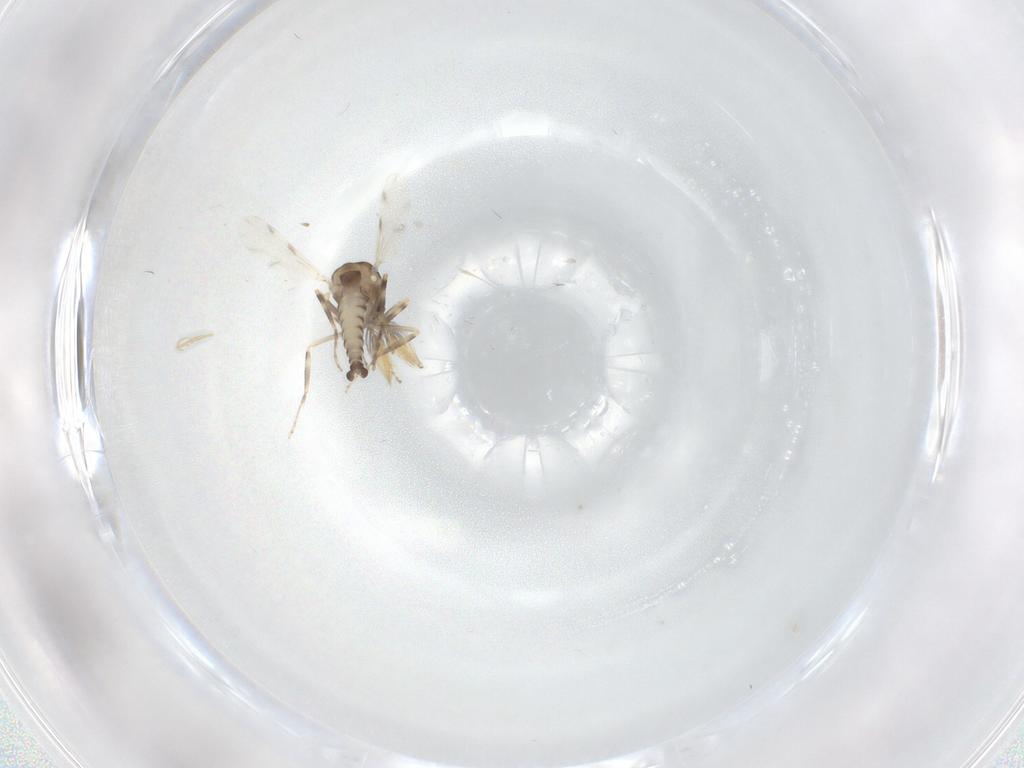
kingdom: Animalia
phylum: Arthropoda
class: Insecta
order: Diptera
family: Ceratopogonidae
